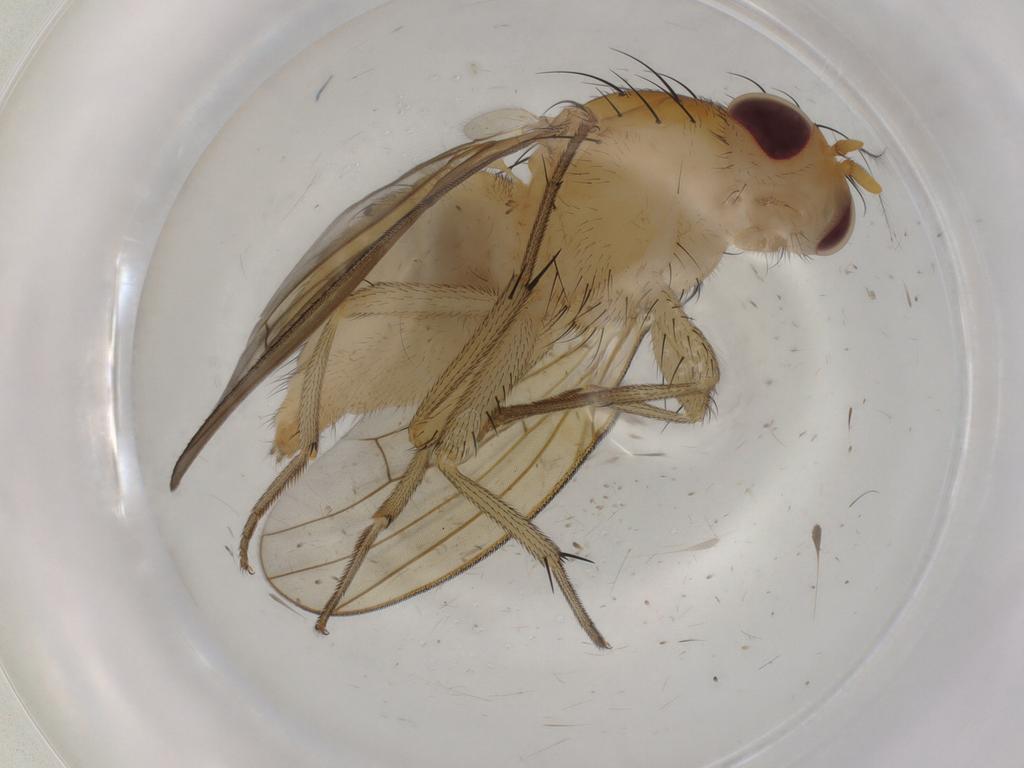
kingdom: Animalia
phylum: Arthropoda
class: Insecta
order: Diptera
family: Chironomidae
